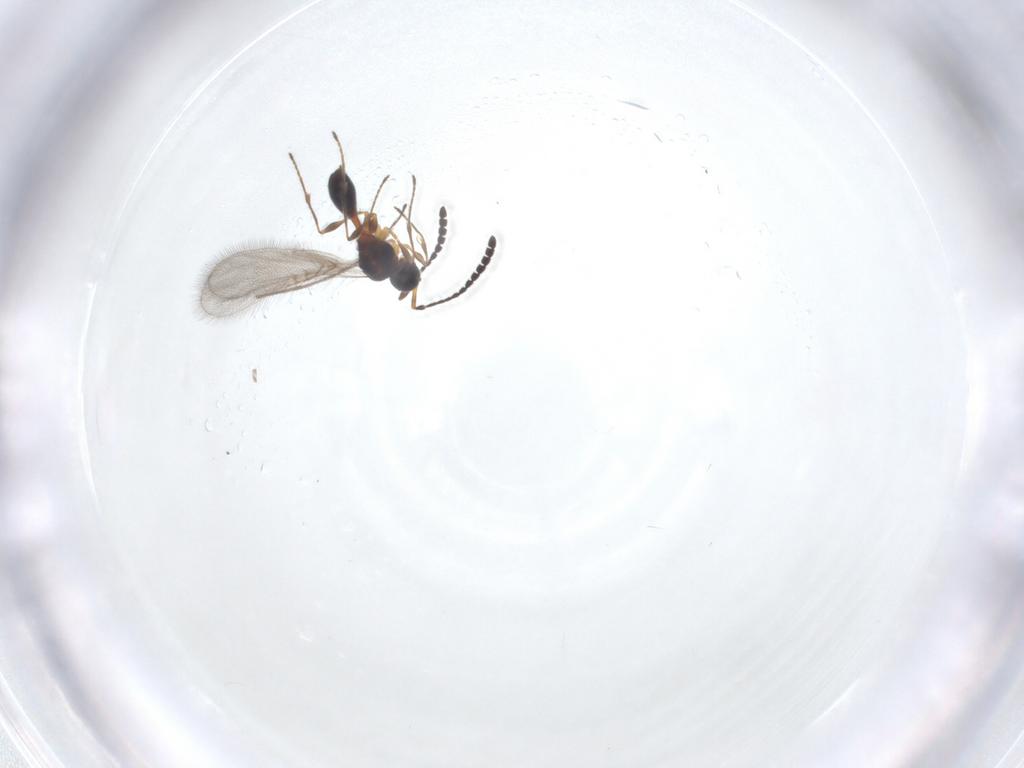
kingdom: Animalia
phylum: Arthropoda
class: Insecta
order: Hymenoptera
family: Diapriidae
